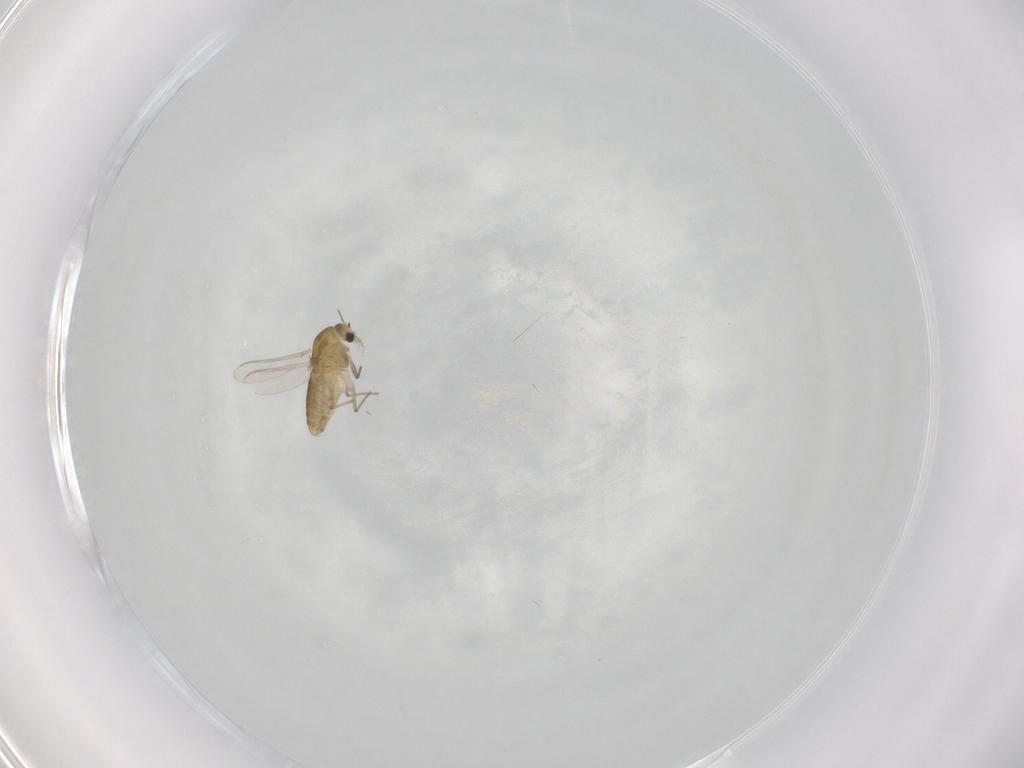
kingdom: Animalia
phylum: Arthropoda
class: Insecta
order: Diptera
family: Chironomidae
